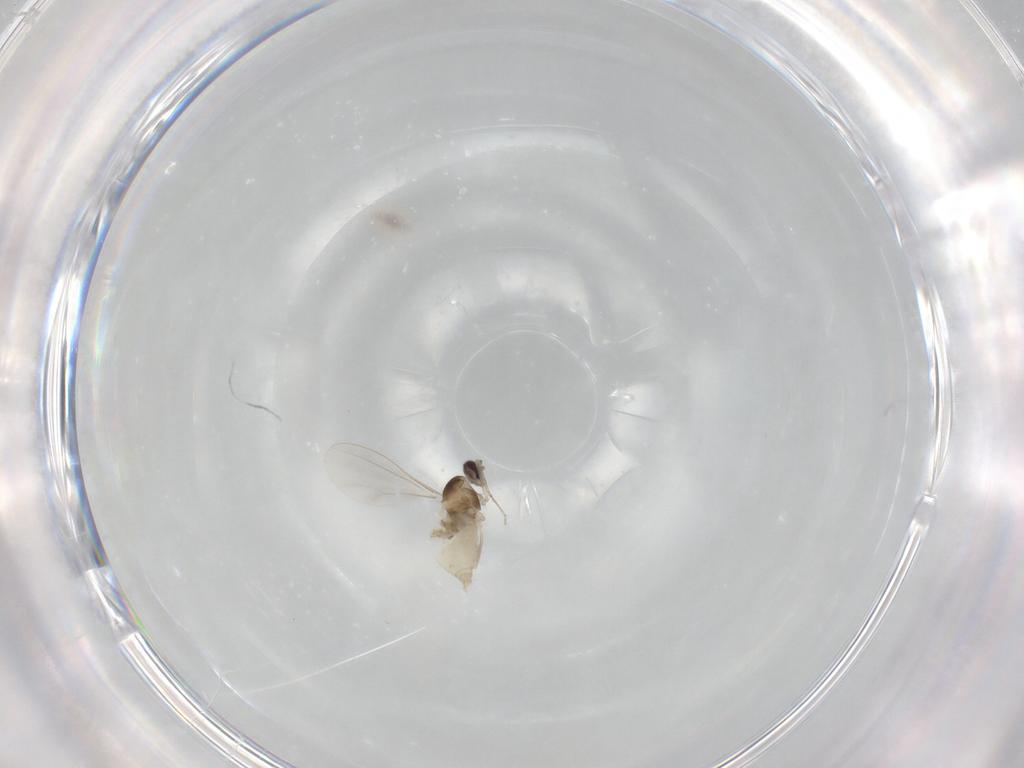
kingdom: Animalia
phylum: Arthropoda
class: Insecta
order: Diptera
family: Cecidomyiidae
